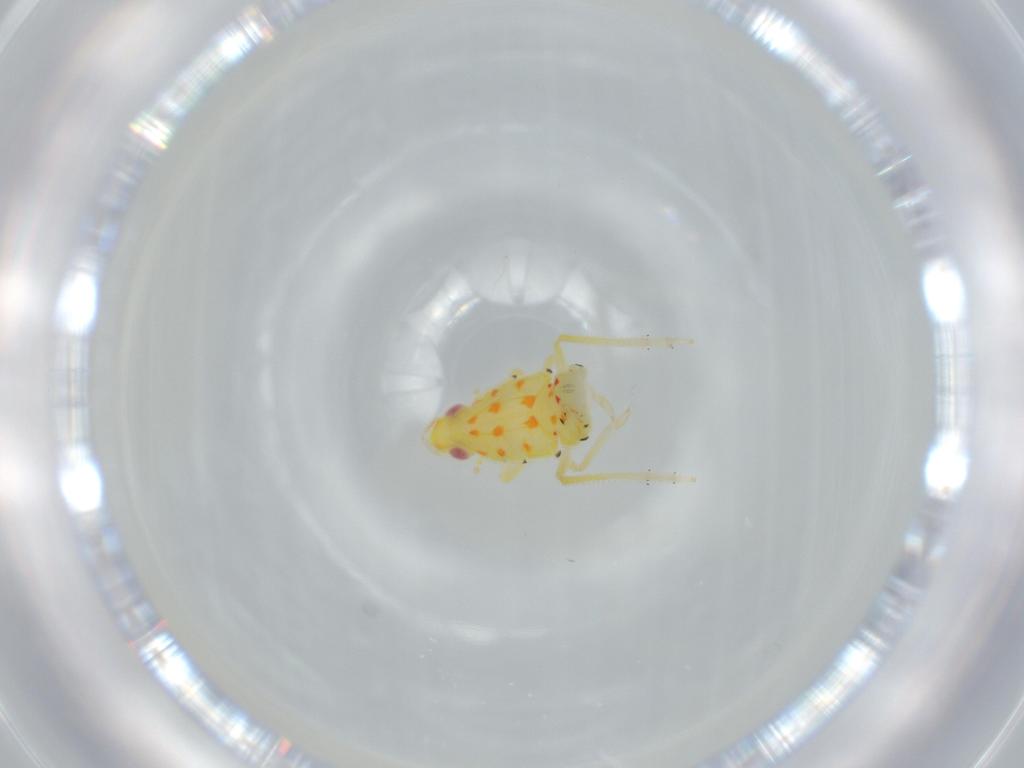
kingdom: Animalia
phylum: Arthropoda
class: Insecta
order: Hemiptera
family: Tropiduchidae
